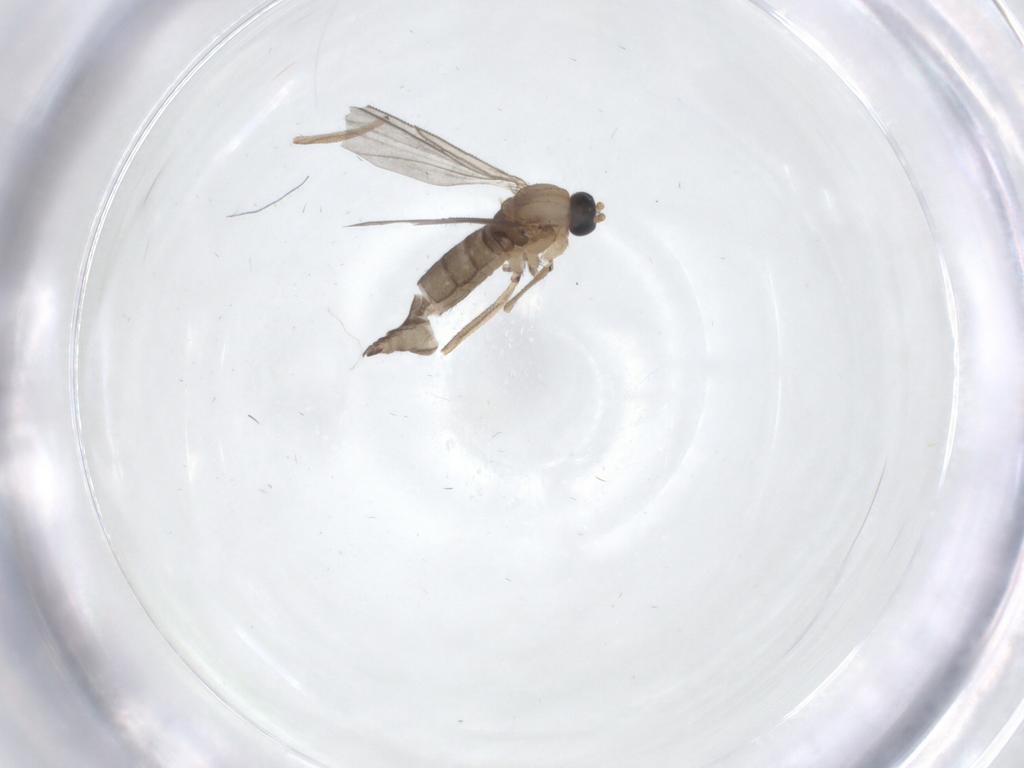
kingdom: Animalia
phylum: Arthropoda
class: Insecta
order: Diptera
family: Sciaridae
